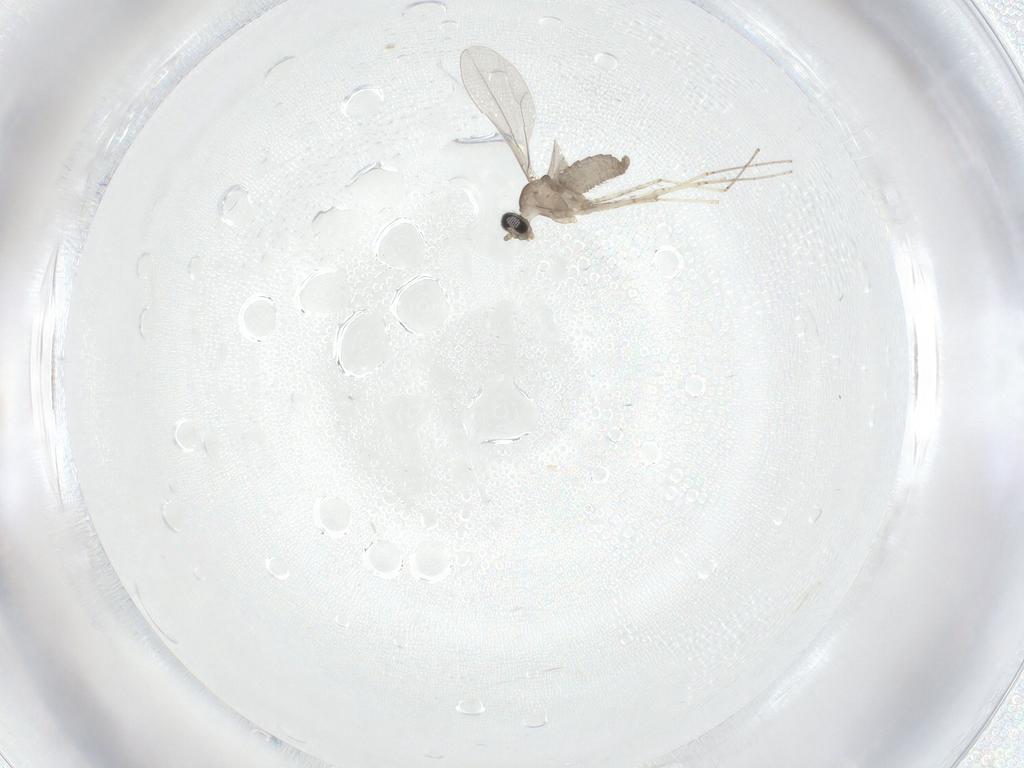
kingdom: Animalia
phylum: Arthropoda
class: Insecta
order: Diptera
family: Cecidomyiidae
